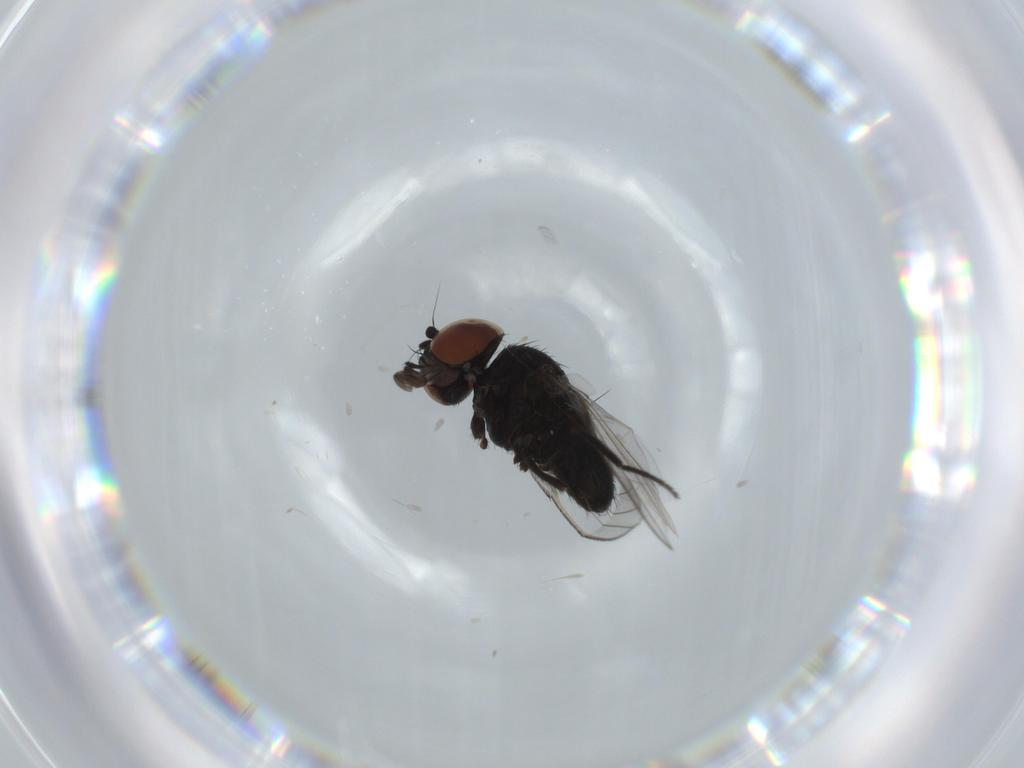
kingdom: Animalia
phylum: Arthropoda
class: Insecta
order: Diptera
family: Milichiidae
